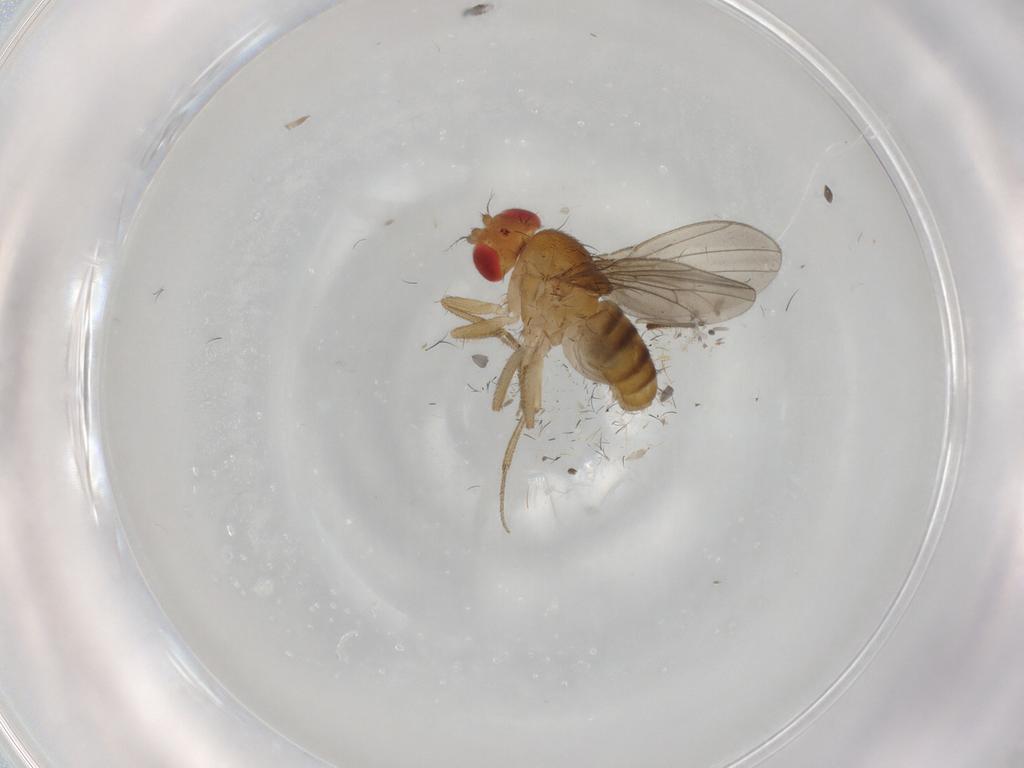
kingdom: Animalia
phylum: Arthropoda
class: Insecta
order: Diptera
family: Drosophilidae
